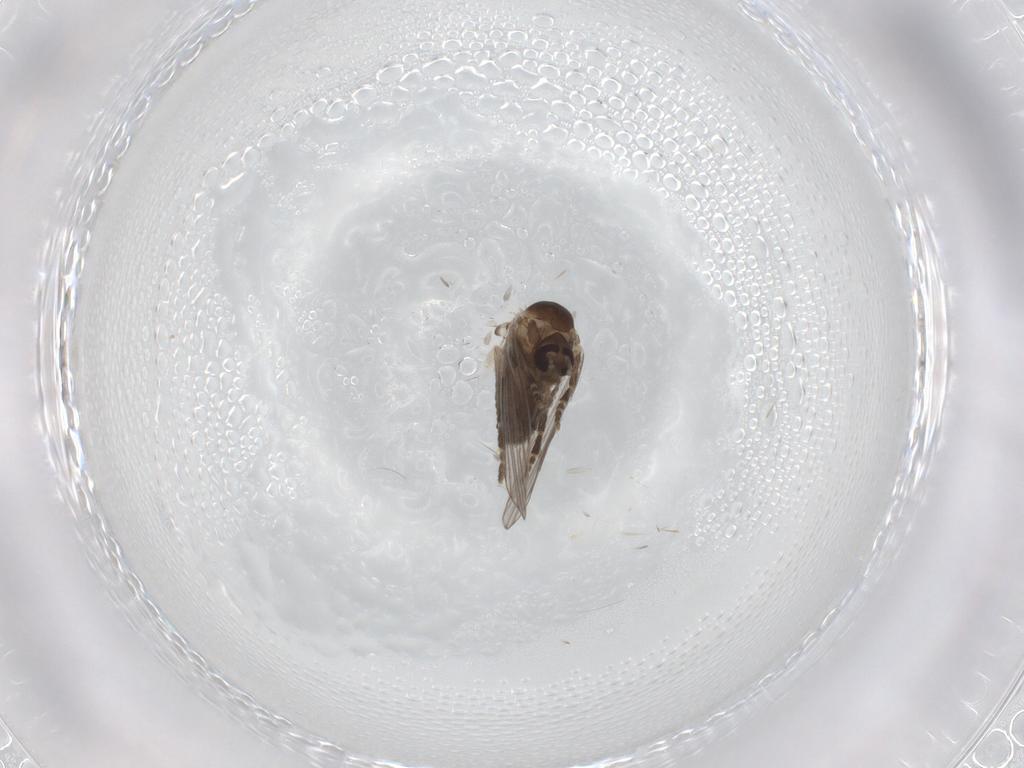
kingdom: Animalia
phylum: Arthropoda
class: Insecta
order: Diptera
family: Psychodidae
